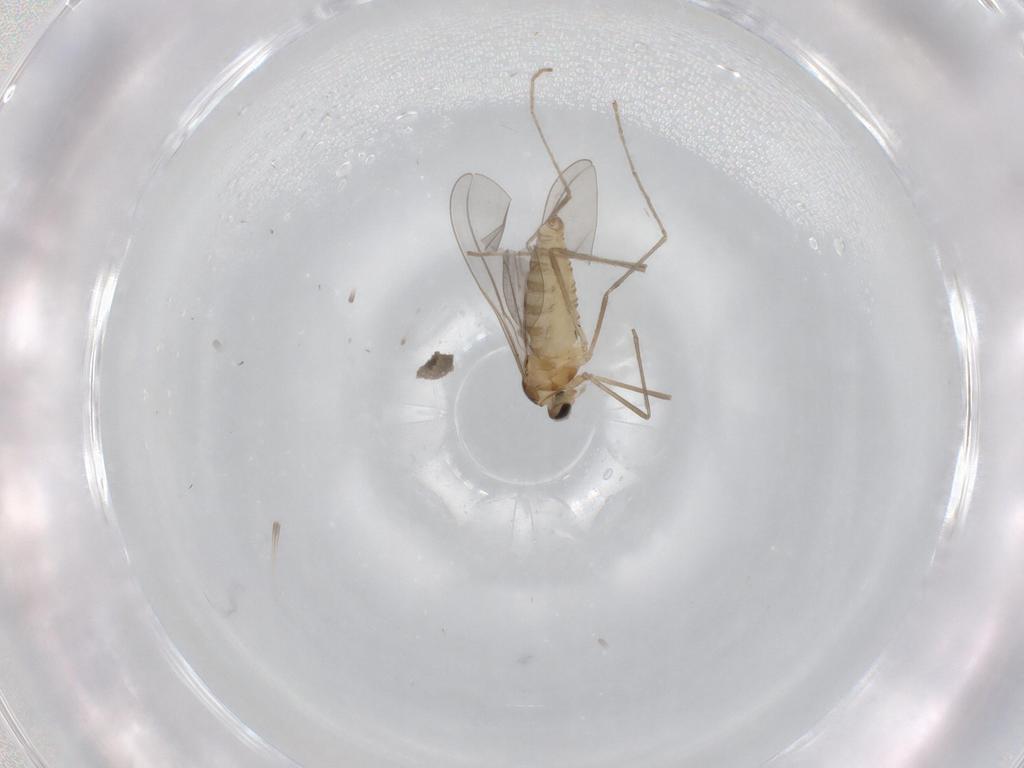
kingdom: Animalia
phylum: Arthropoda
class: Insecta
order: Diptera
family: Cecidomyiidae
